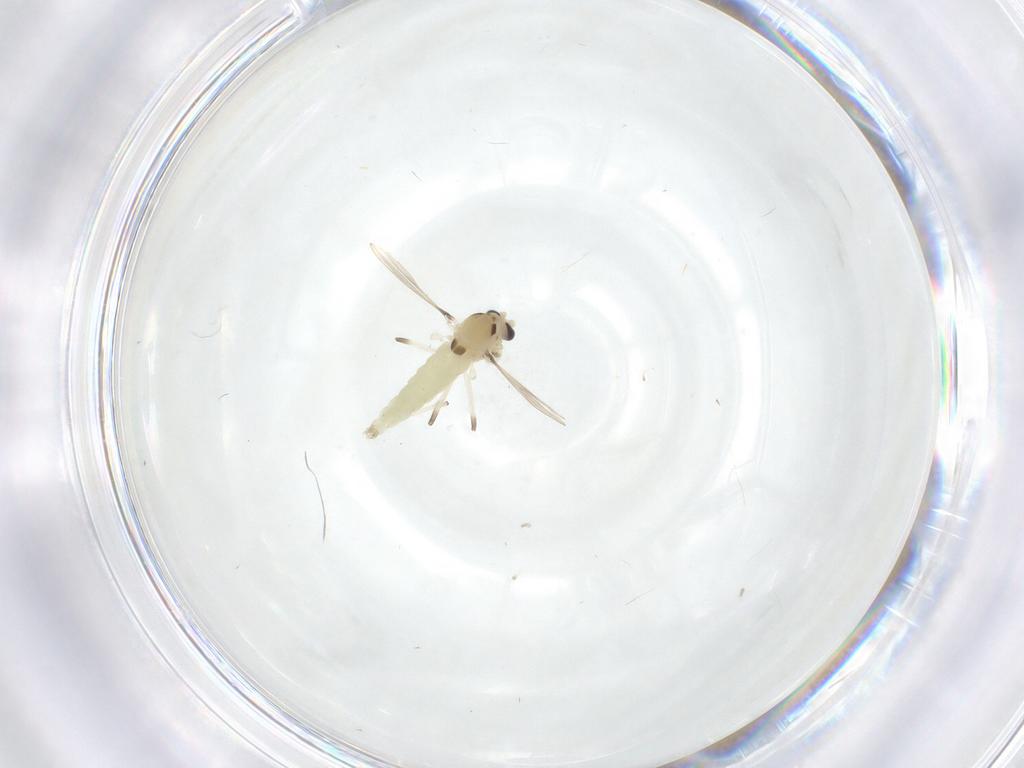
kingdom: Animalia
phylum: Arthropoda
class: Insecta
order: Diptera
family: Chironomidae
